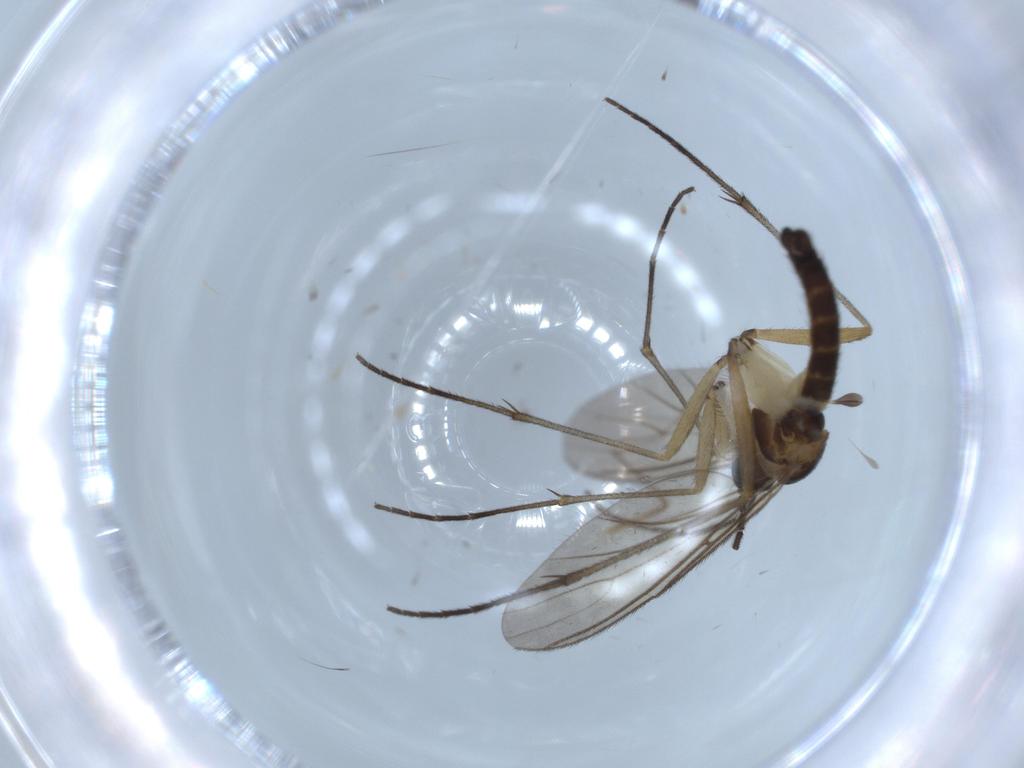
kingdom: Animalia
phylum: Arthropoda
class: Insecta
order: Diptera
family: Sciaridae
